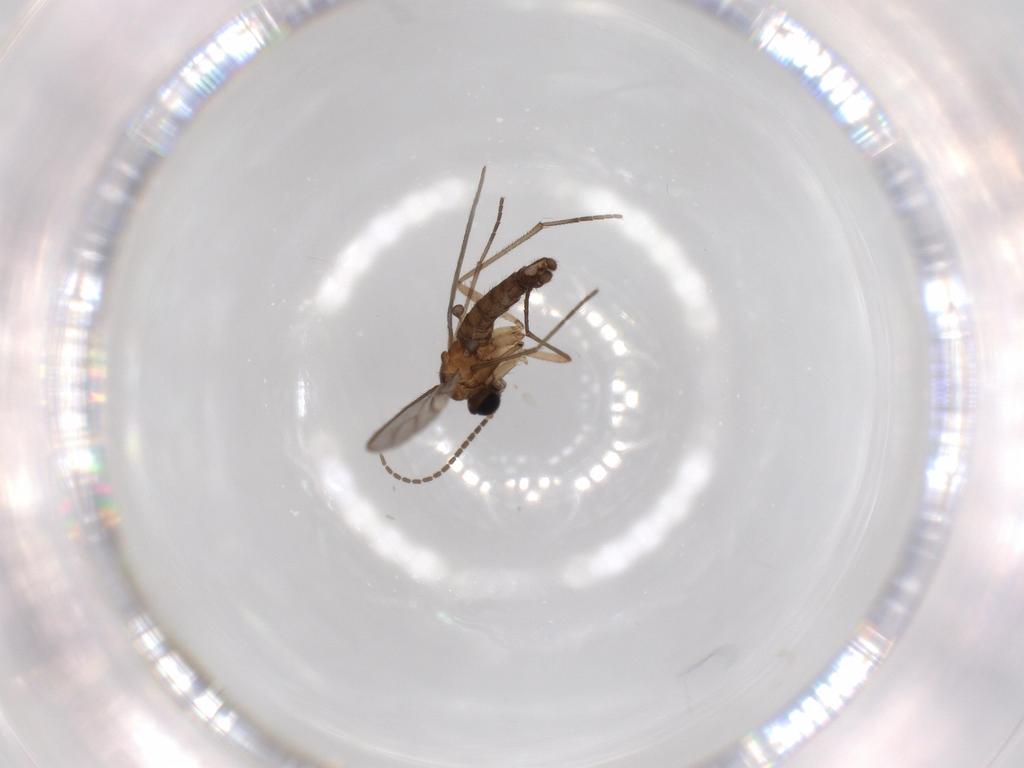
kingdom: Animalia
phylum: Arthropoda
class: Insecta
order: Diptera
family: Sciaridae
